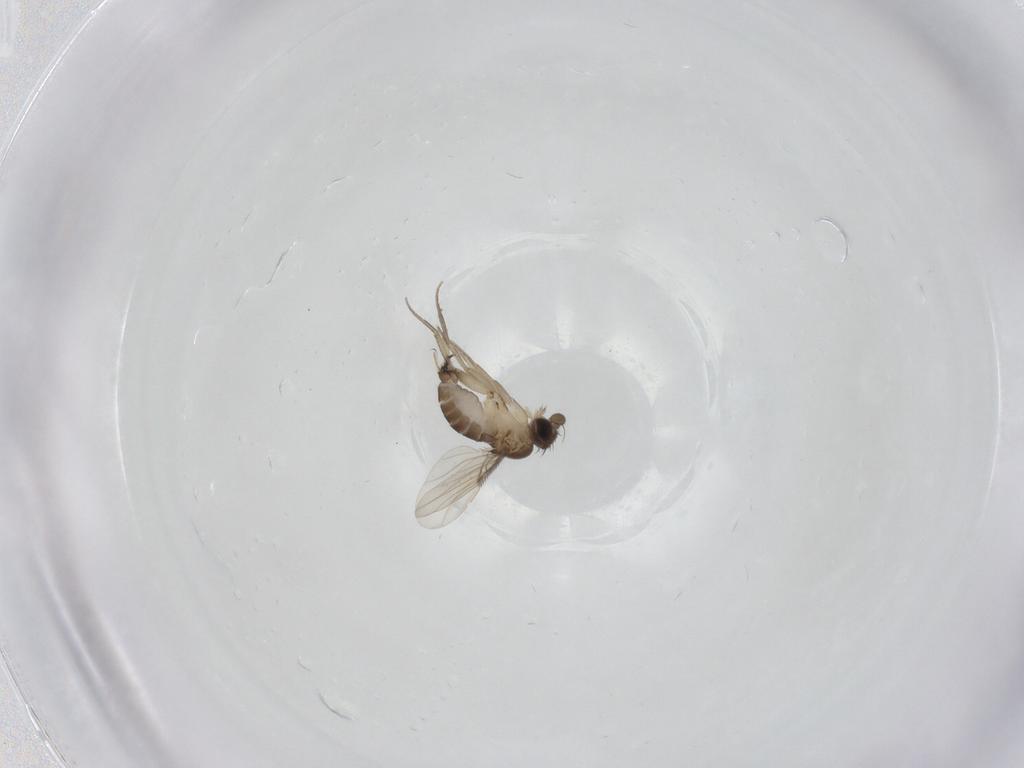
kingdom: Animalia
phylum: Arthropoda
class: Insecta
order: Diptera
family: Phoridae
